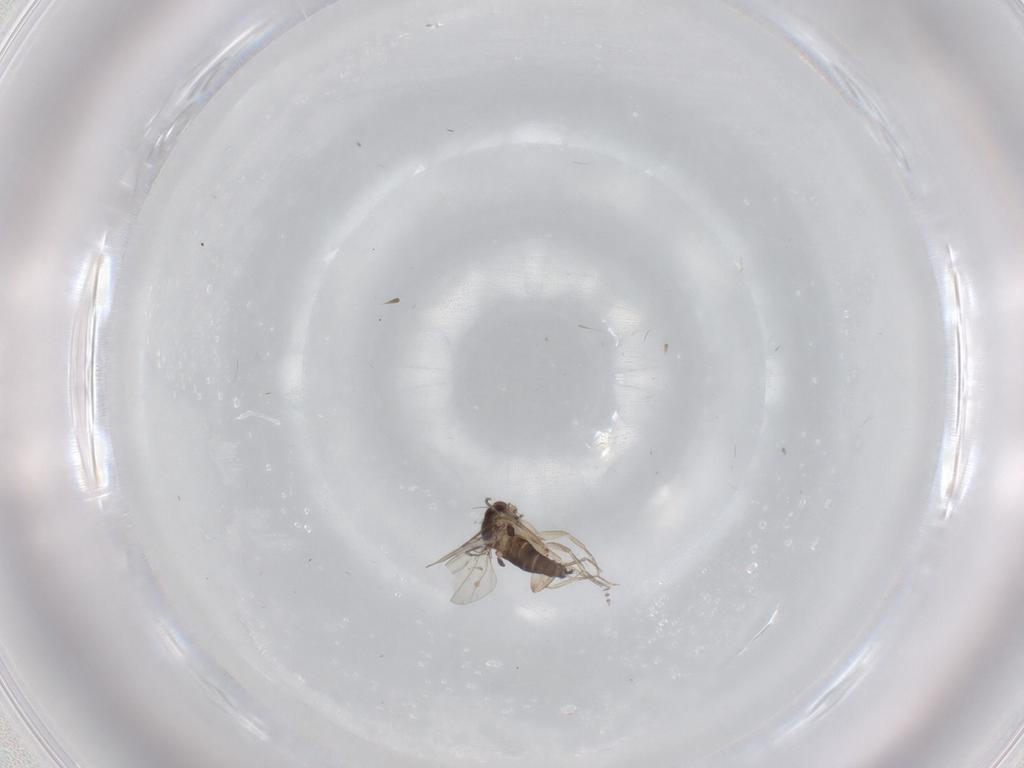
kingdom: Animalia
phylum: Arthropoda
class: Insecta
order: Diptera
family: Phoridae
